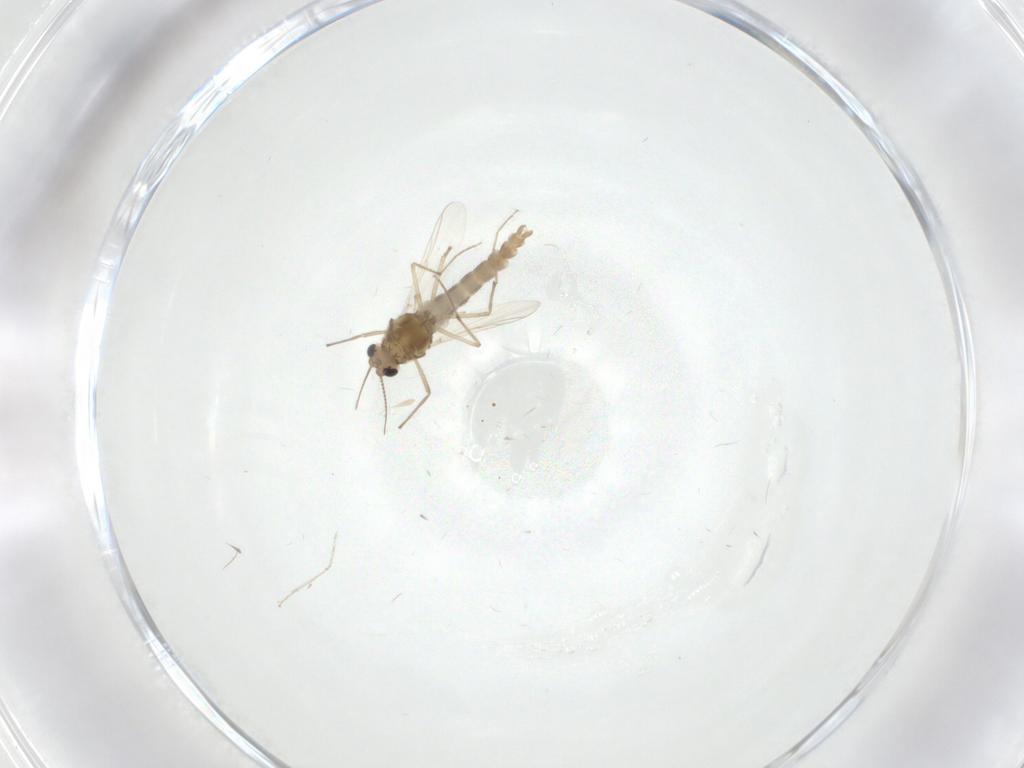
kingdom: Animalia
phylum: Arthropoda
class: Insecta
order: Diptera
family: Chironomidae
